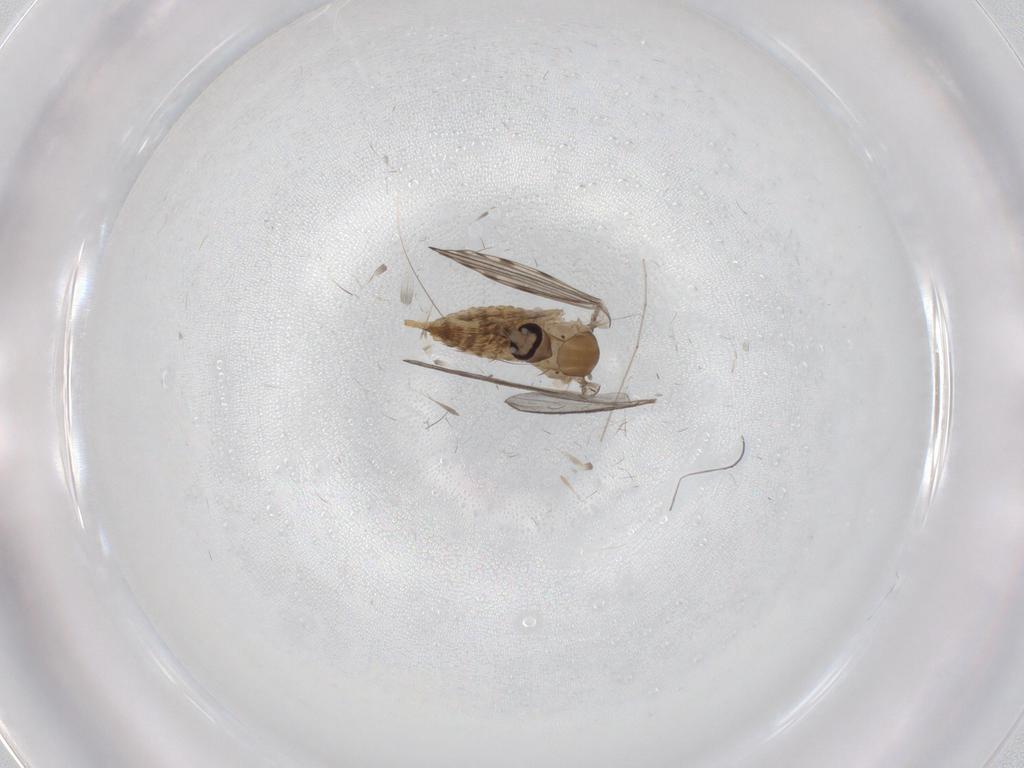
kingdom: Animalia
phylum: Arthropoda
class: Insecta
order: Diptera
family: Psychodidae
